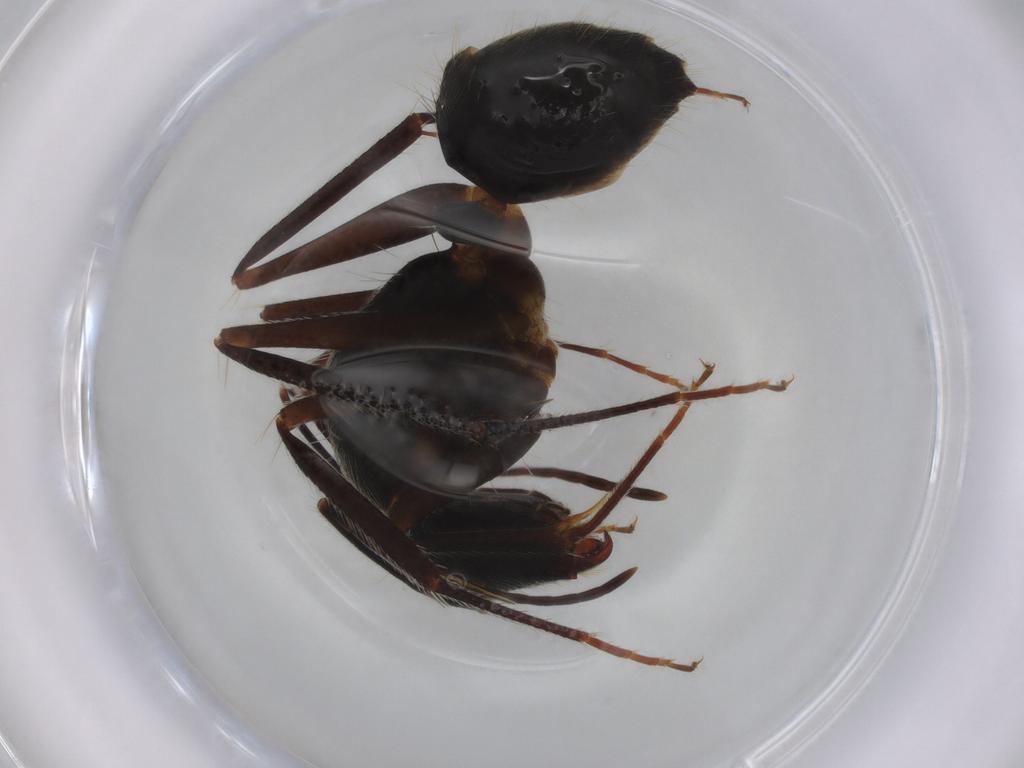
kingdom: Animalia
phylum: Arthropoda
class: Insecta
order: Hymenoptera
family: Formicidae
